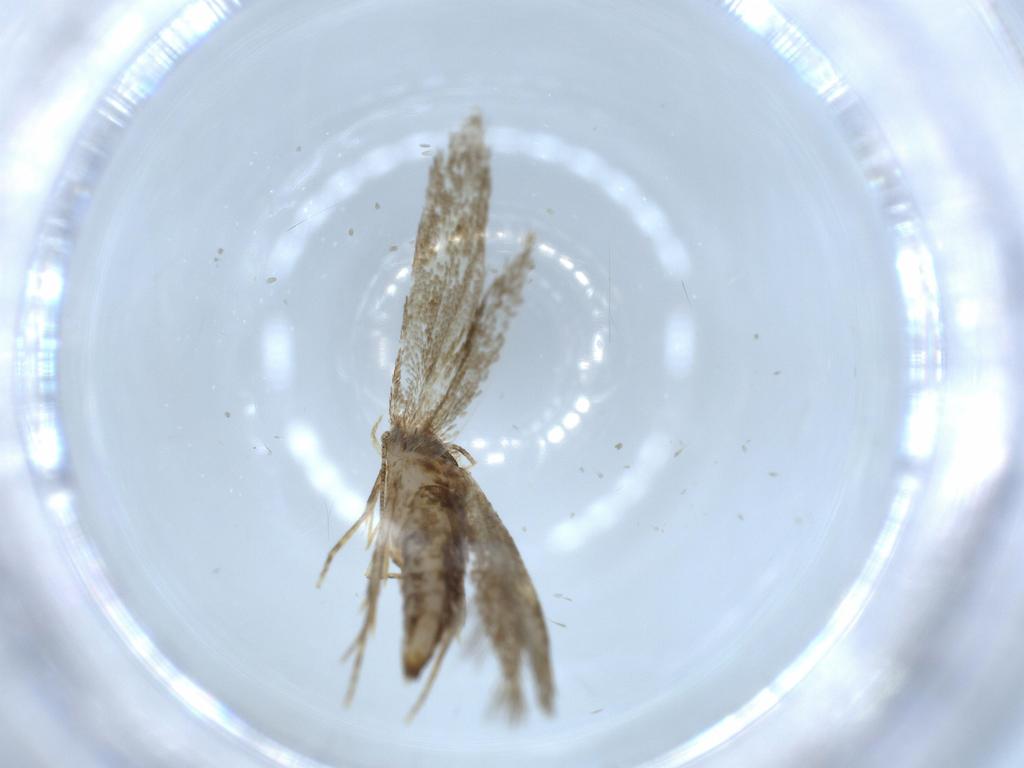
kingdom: Animalia
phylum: Arthropoda
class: Insecta
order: Lepidoptera
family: Tineidae
